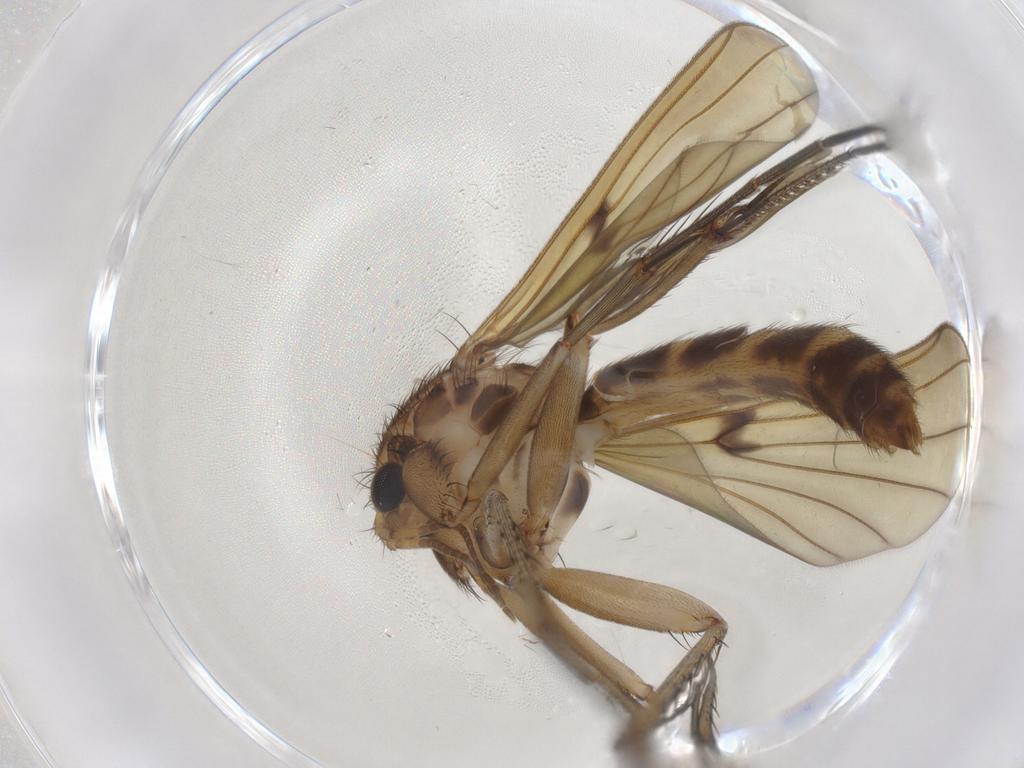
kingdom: Animalia
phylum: Arthropoda
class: Insecta
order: Diptera
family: Mycetophilidae
